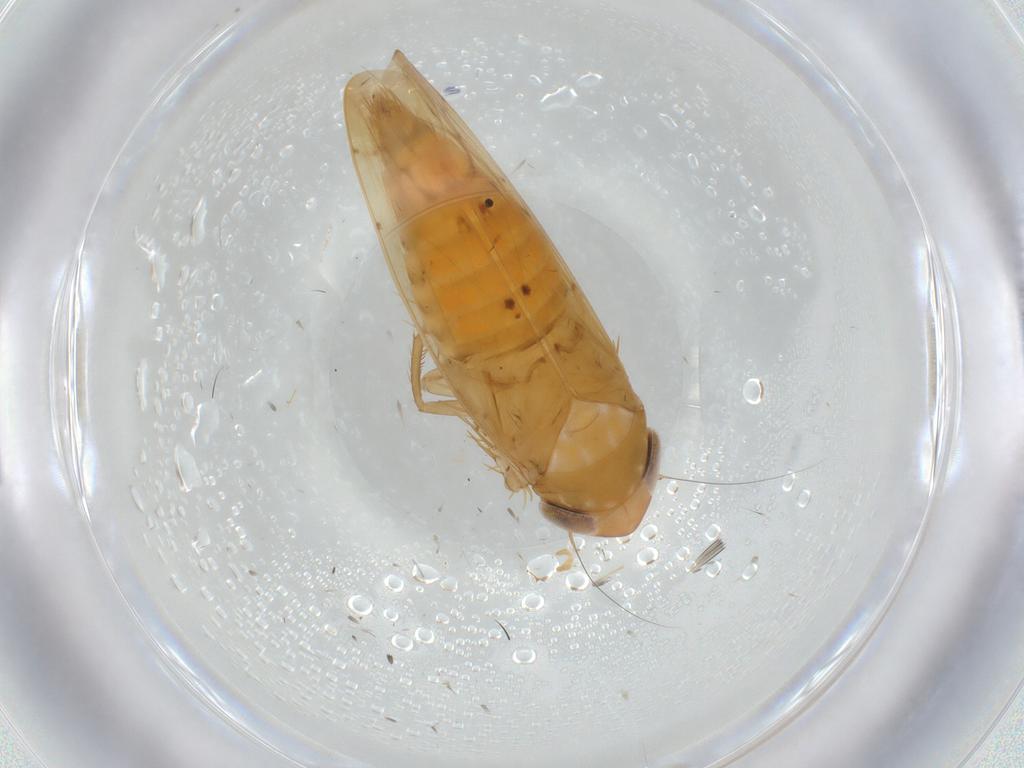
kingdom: Animalia
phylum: Arthropoda
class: Insecta
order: Hemiptera
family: Cicadellidae
